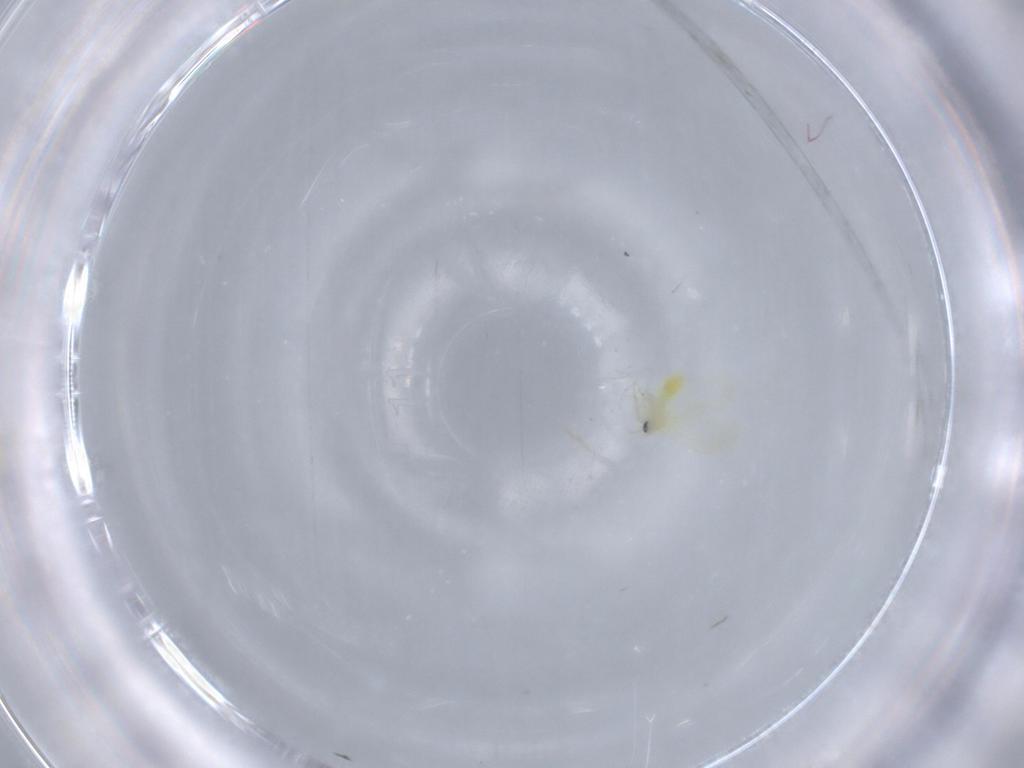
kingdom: Animalia
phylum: Arthropoda
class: Insecta
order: Hemiptera
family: Aleyrodidae
